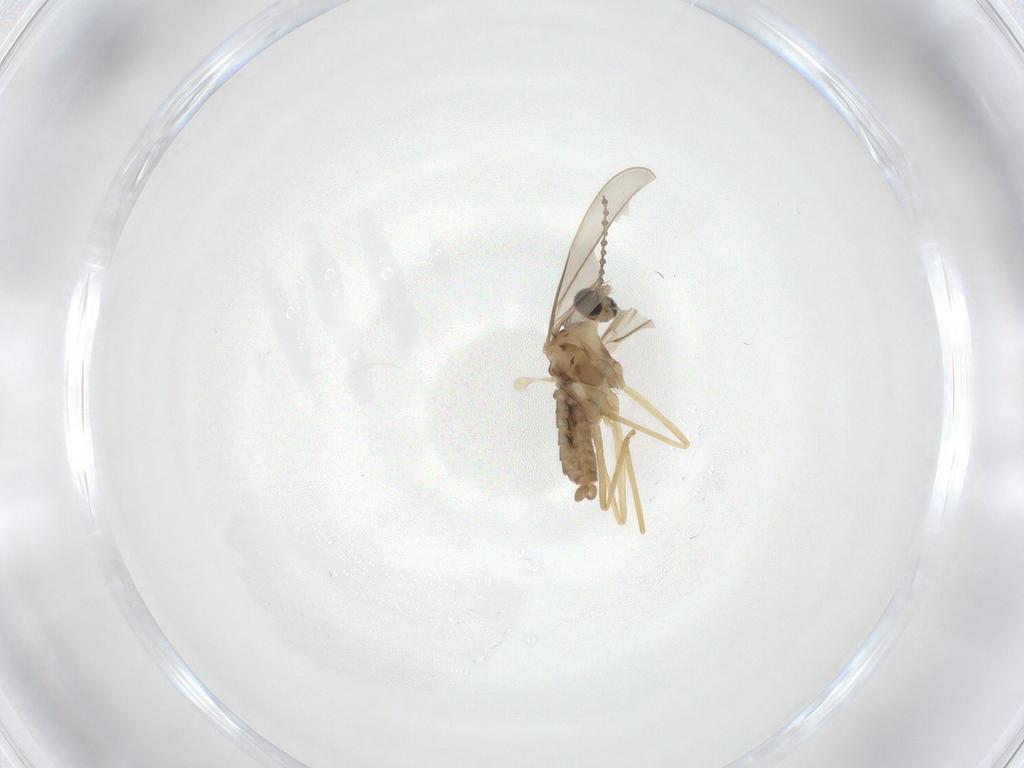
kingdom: Animalia
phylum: Arthropoda
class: Insecta
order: Diptera
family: Cecidomyiidae
